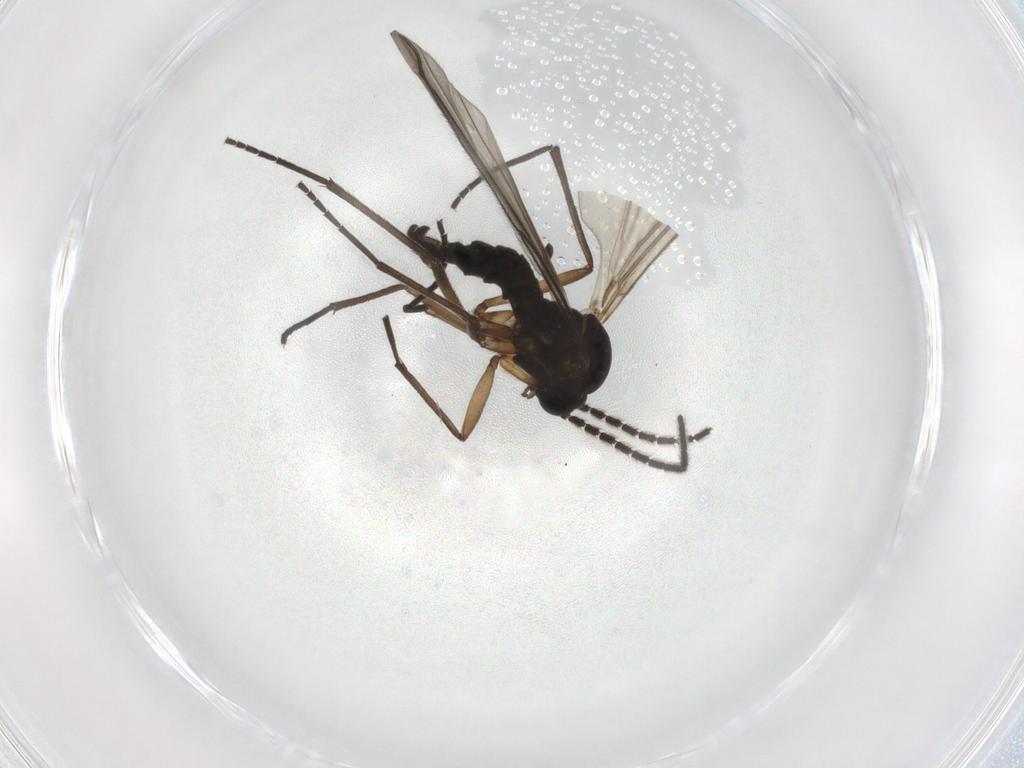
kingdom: Animalia
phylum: Arthropoda
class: Insecta
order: Diptera
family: Sciaridae
